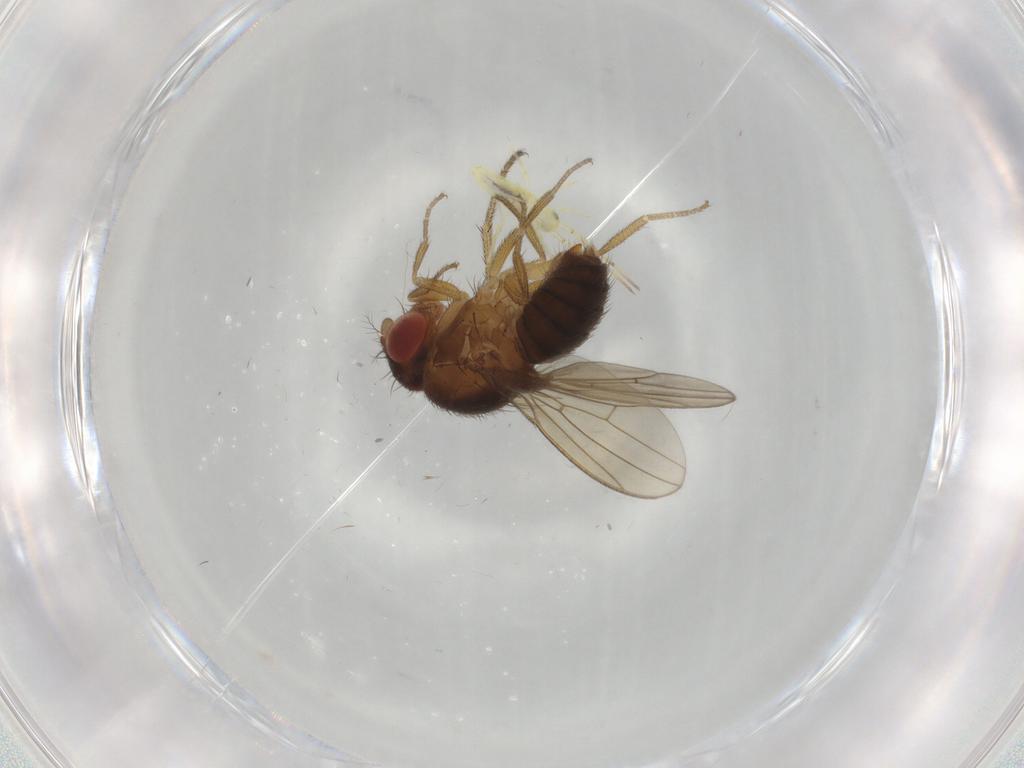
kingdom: Animalia
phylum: Arthropoda
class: Insecta
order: Diptera
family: Drosophilidae
